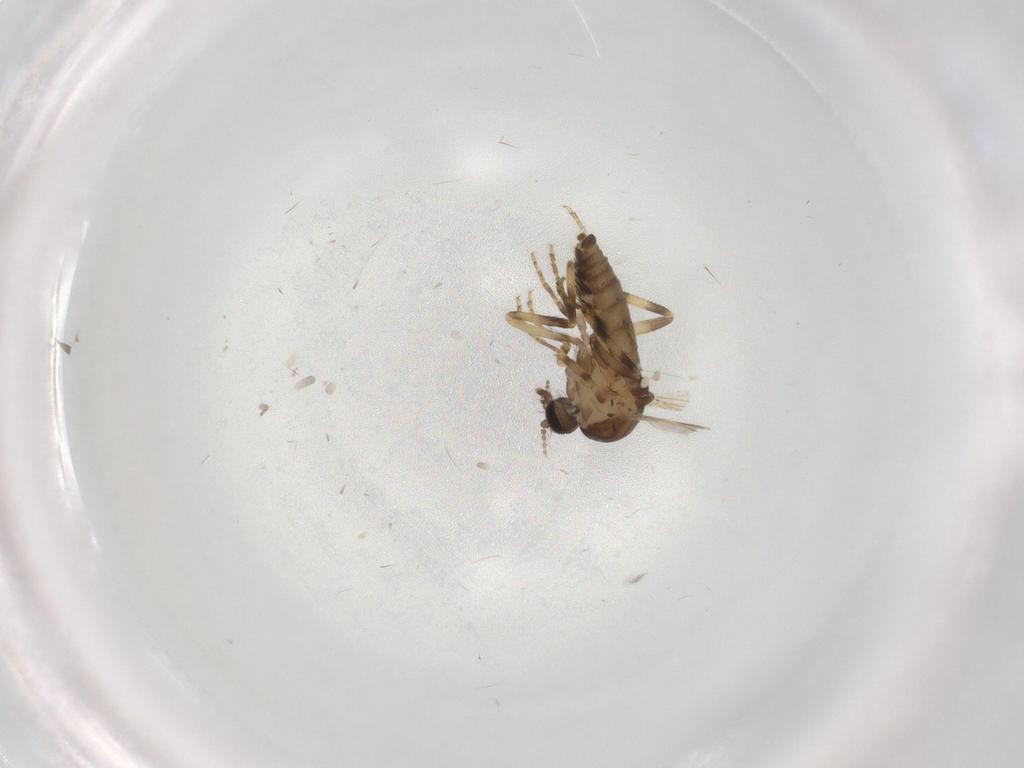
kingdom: Animalia
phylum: Arthropoda
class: Insecta
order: Diptera
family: Ceratopogonidae
